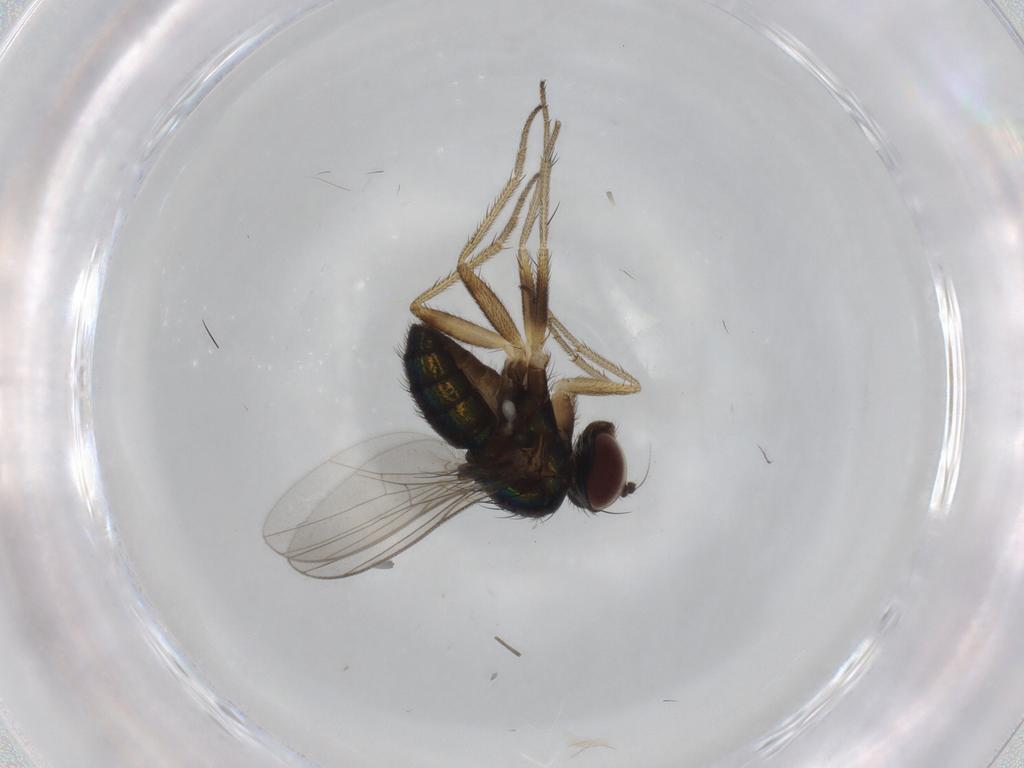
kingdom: Animalia
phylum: Arthropoda
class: Insecta
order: Diptera
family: Dolichopodidae
